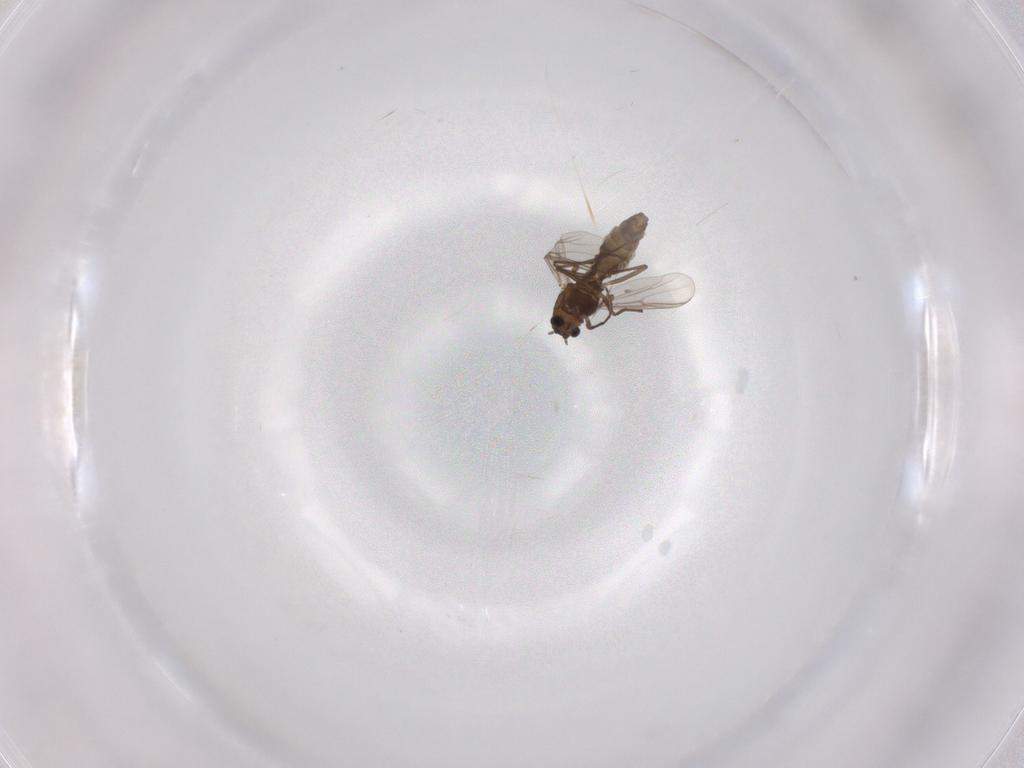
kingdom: Animalia
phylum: Arthropoda
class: Insecta
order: Diptera
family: Chironomidae
